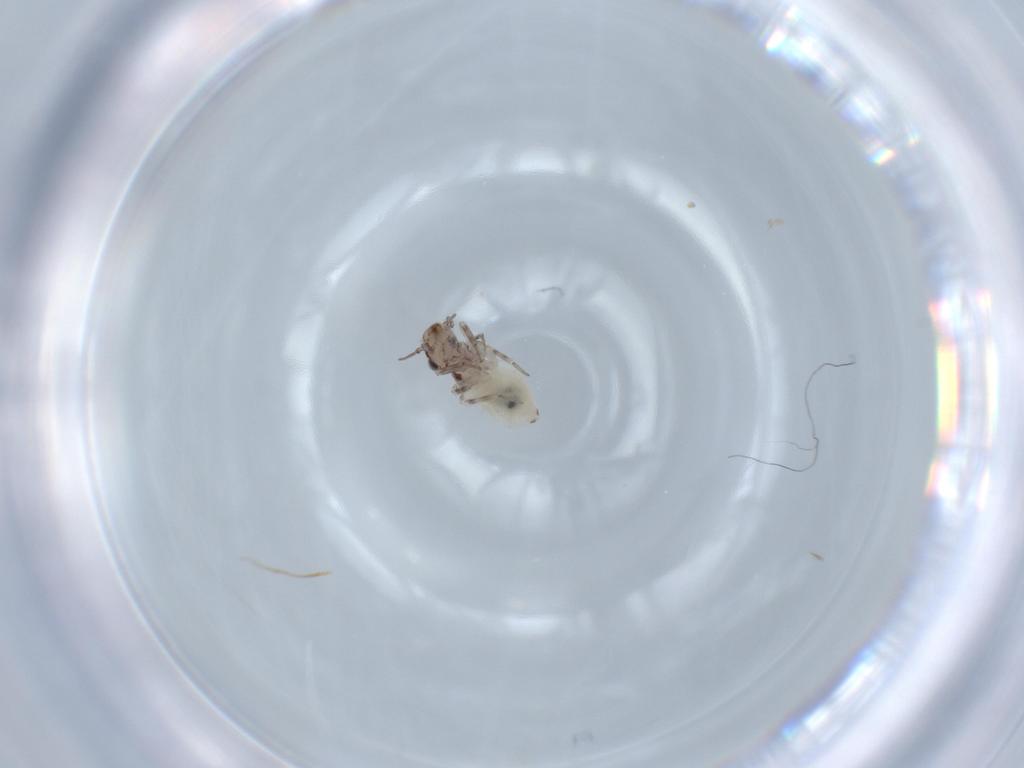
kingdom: Animalia
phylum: Arthropoda
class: Insecta
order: Psocodea
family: Lepidopsocidae
